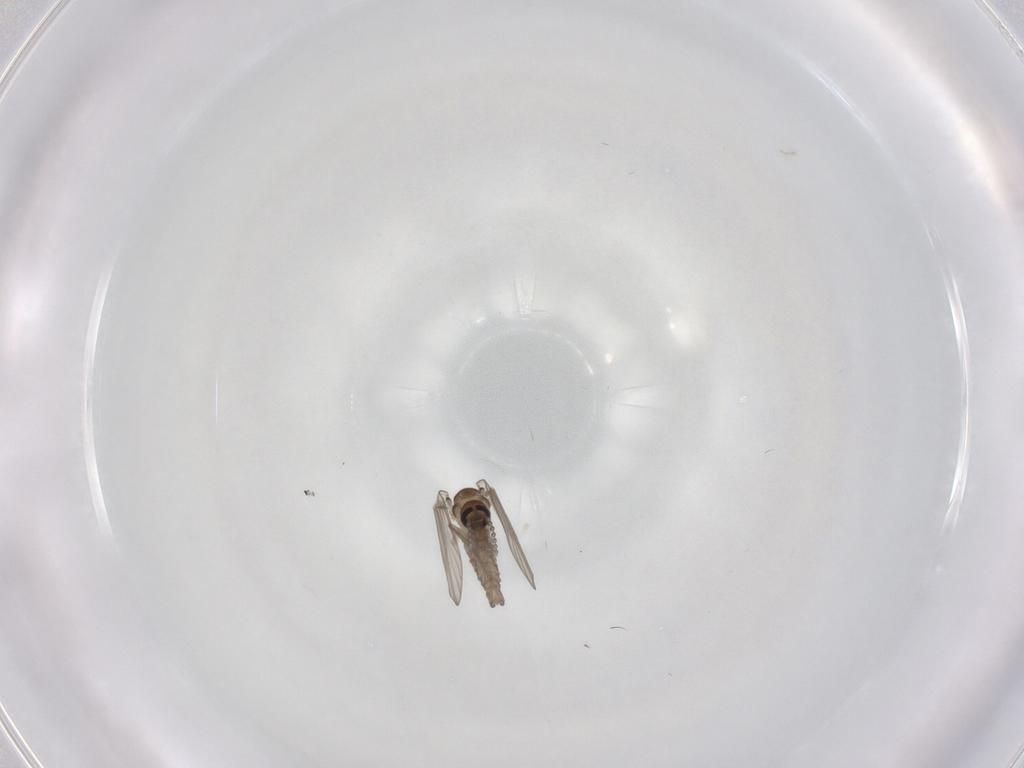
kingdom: Animalia
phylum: Arthropoda
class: Insecta
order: Diptera
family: Psychodidae
